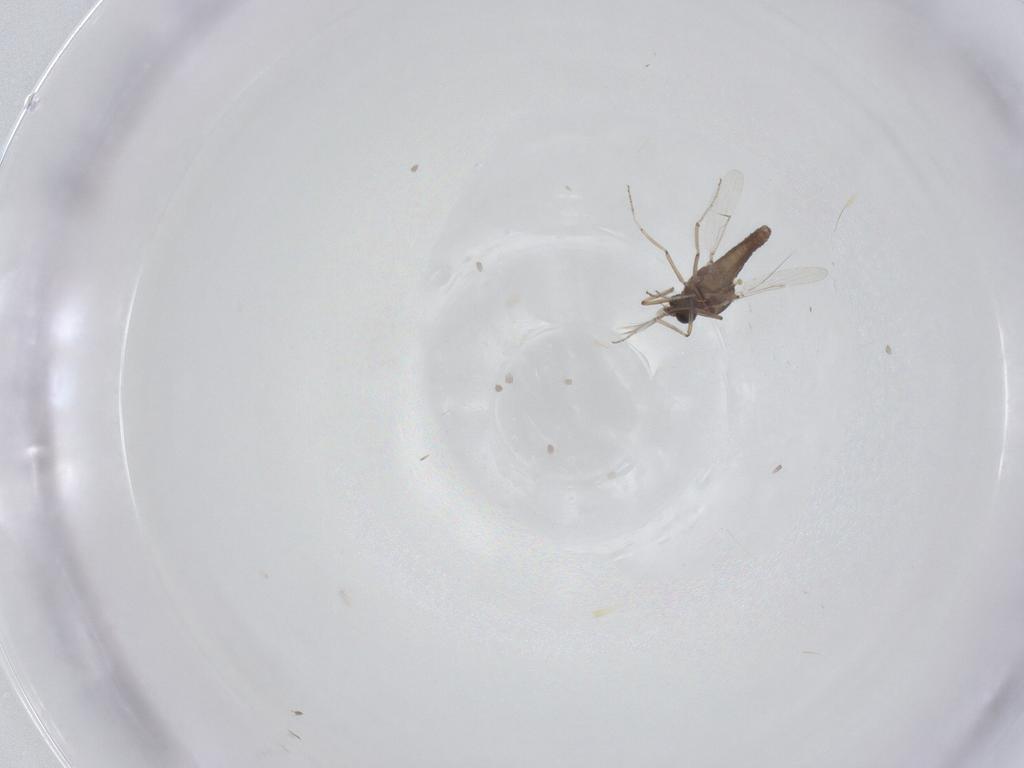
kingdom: Animalia
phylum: Arthropoda
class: Insecta
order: Diptera
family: Ceratopogonidae
